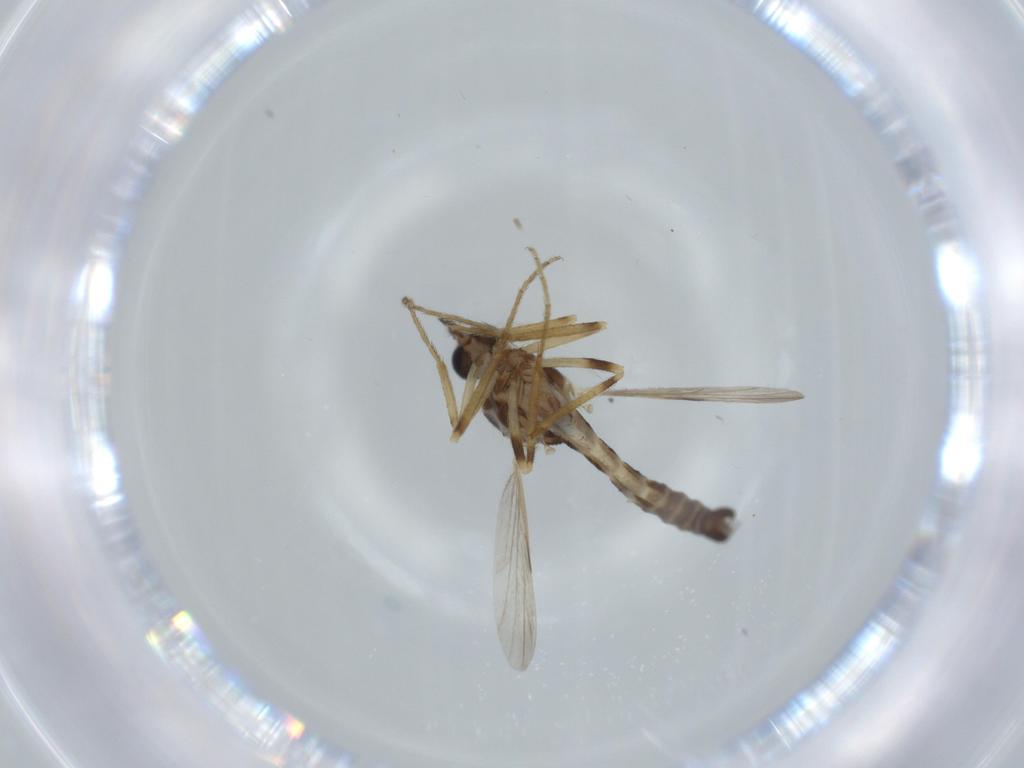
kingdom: Animalia
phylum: Arthropoda
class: Insecta
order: Diptera
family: Ceratopogonidae
